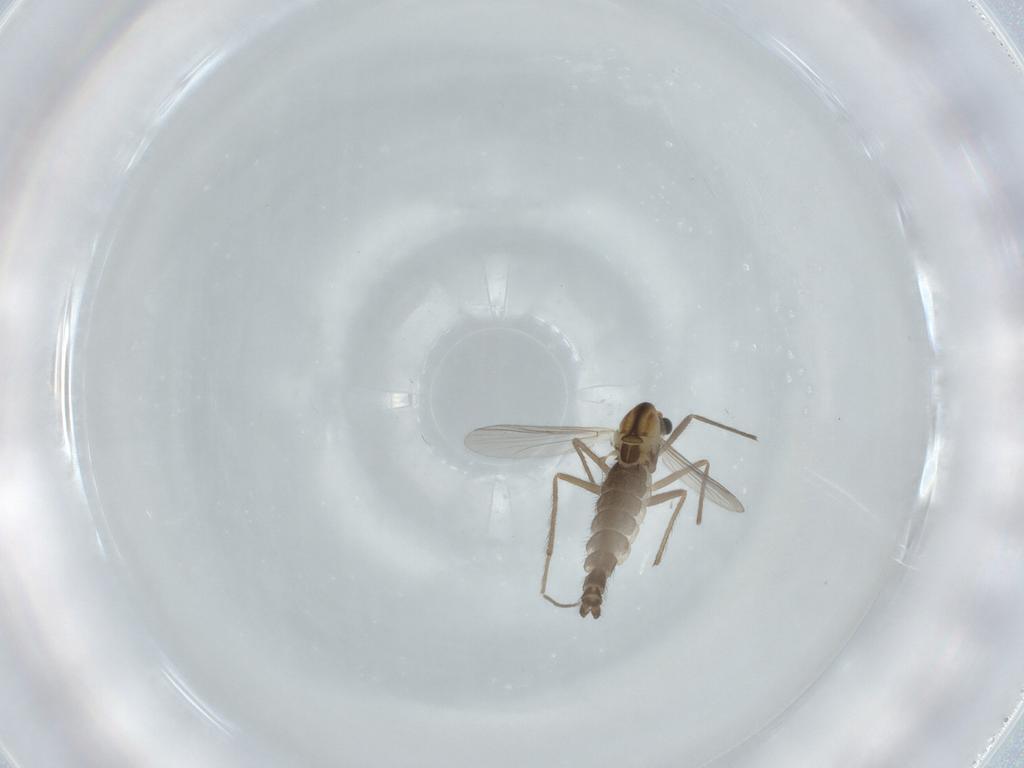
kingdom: Animalia
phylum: Arthropoda
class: Insecta
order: Diptera
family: Chironomidae
